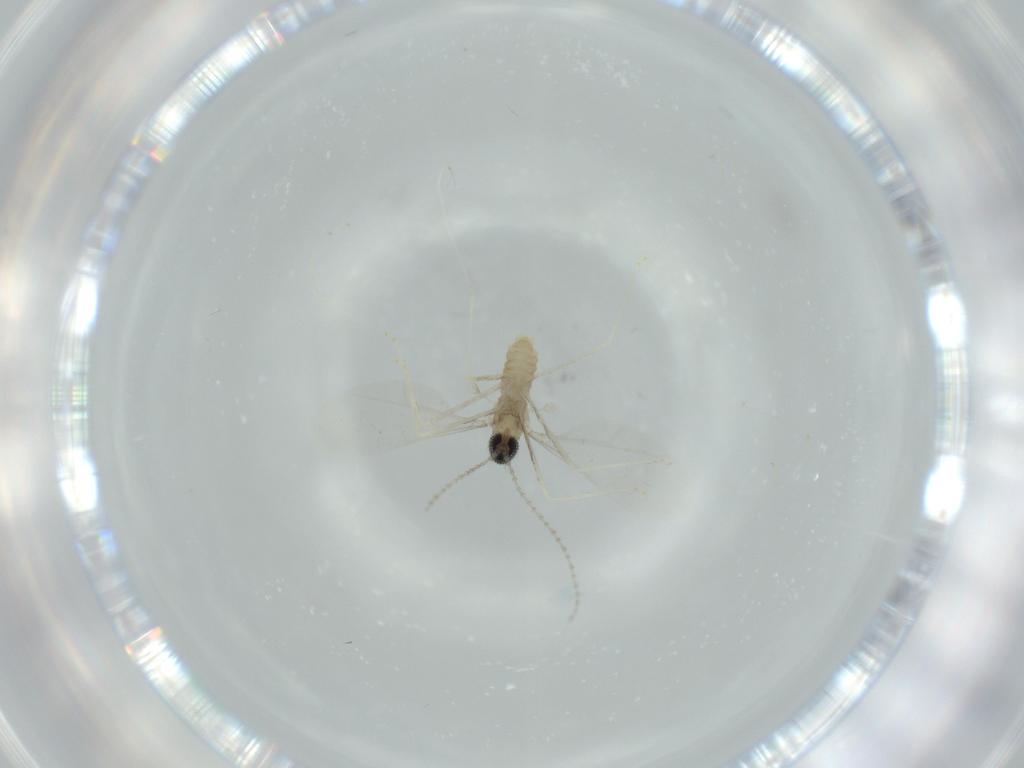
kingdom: Animalia
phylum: Arthropoda
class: Insecta
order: Diptera
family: Cecidomyiidae
